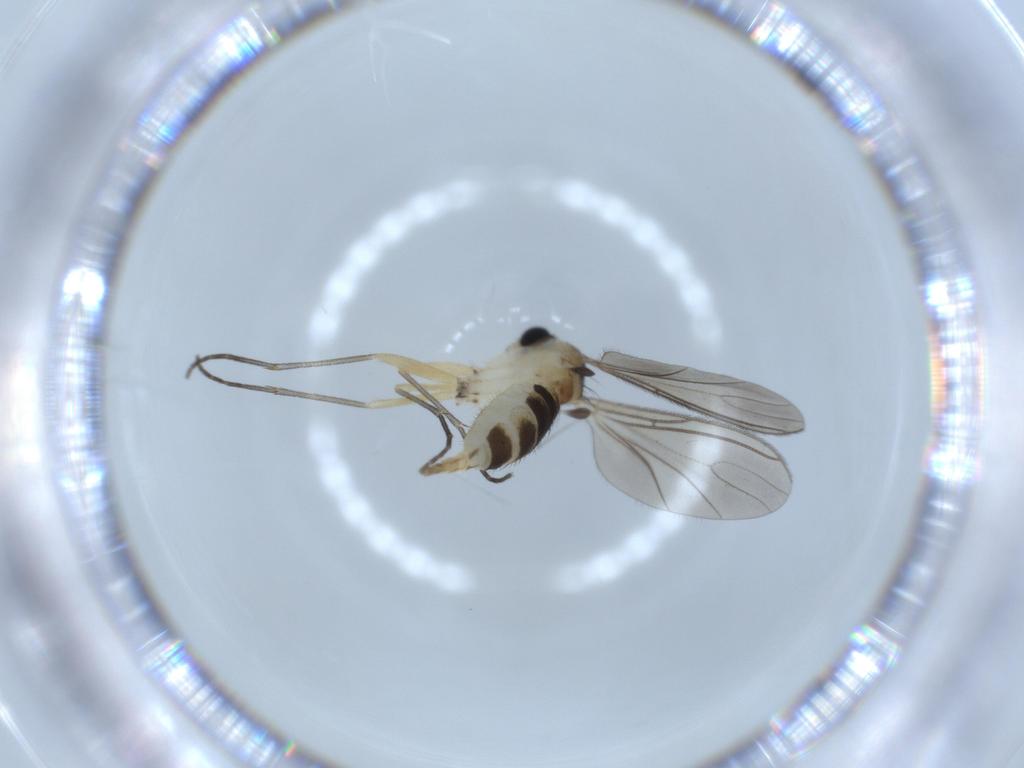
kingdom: Animalia
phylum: Arthropoda
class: Insecta
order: Diptera
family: Sciaridae
